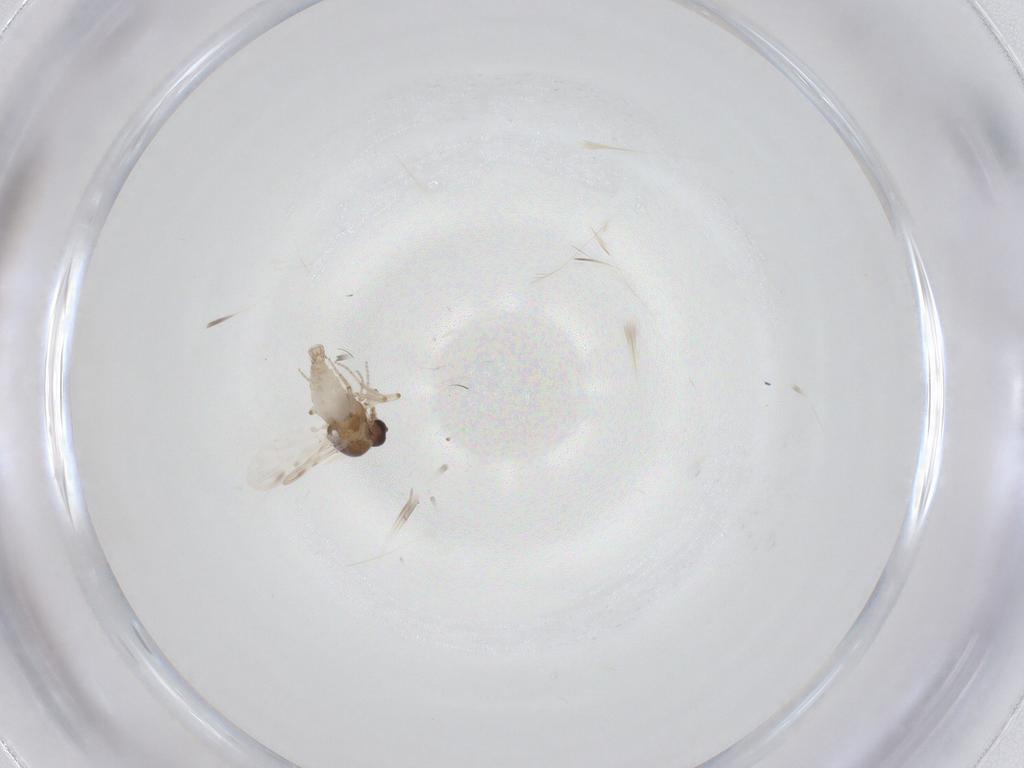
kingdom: Animalia
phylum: Arthropoda
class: Insecta
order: Diptera
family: Ceratopogonidae
